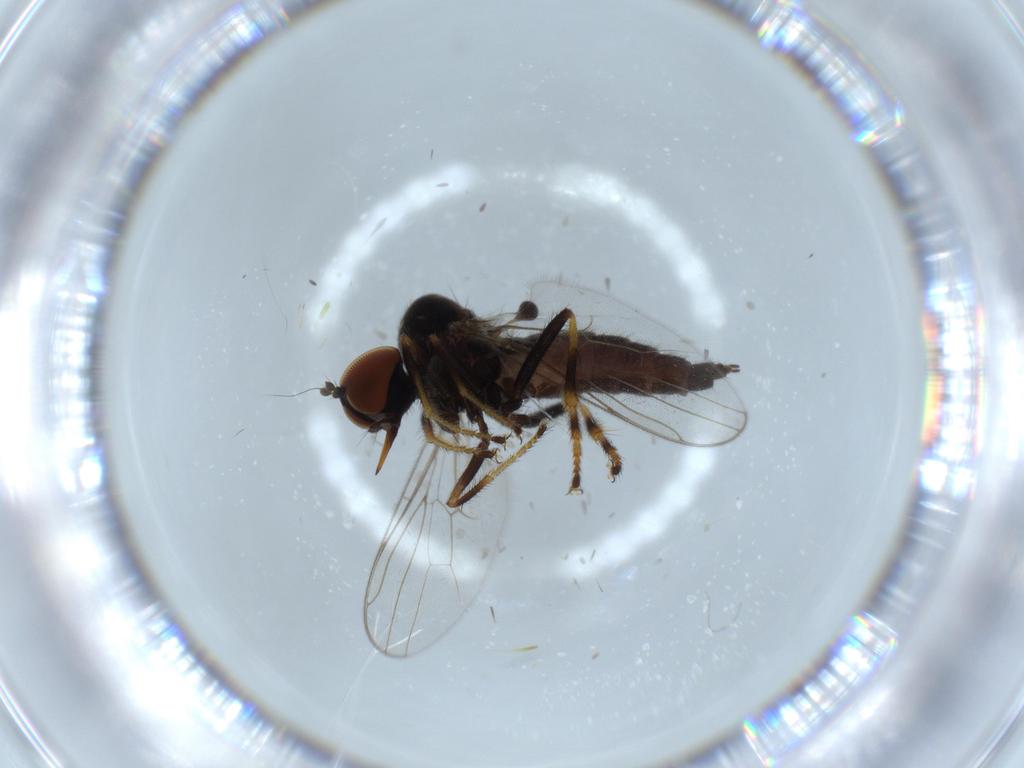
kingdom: Animalia
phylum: Arthropoda
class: Insecta
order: Diptera
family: Hybotidae
